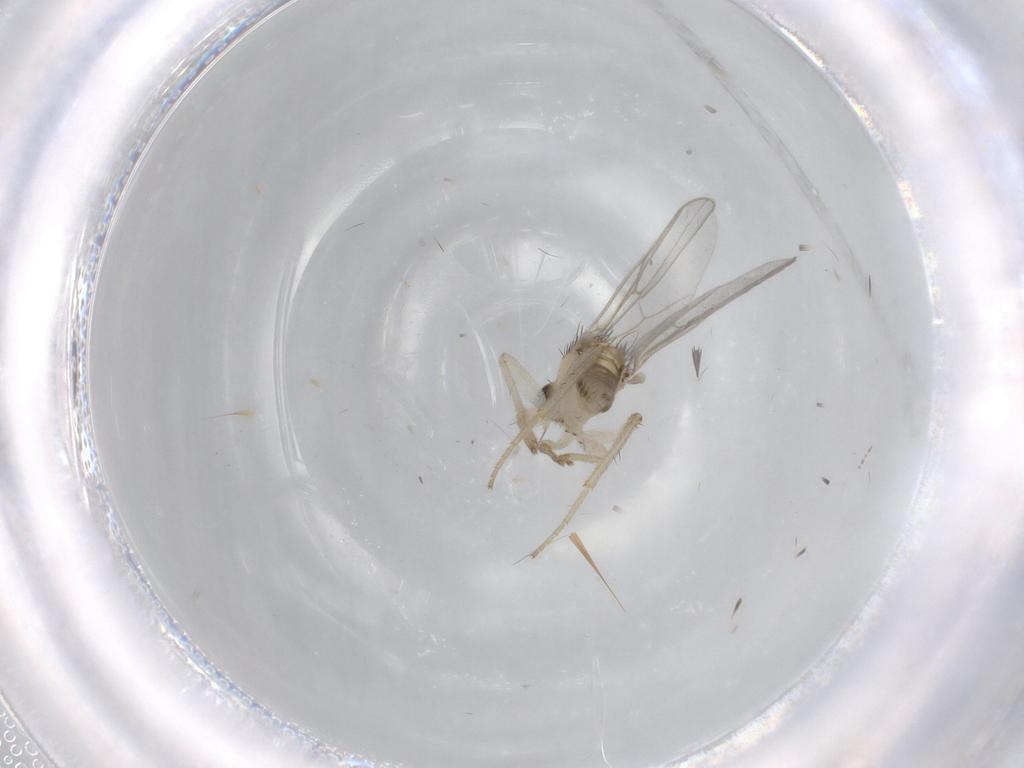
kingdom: Animalia
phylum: Arthropoda
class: Insecta
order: Diptera
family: Hybotidae
